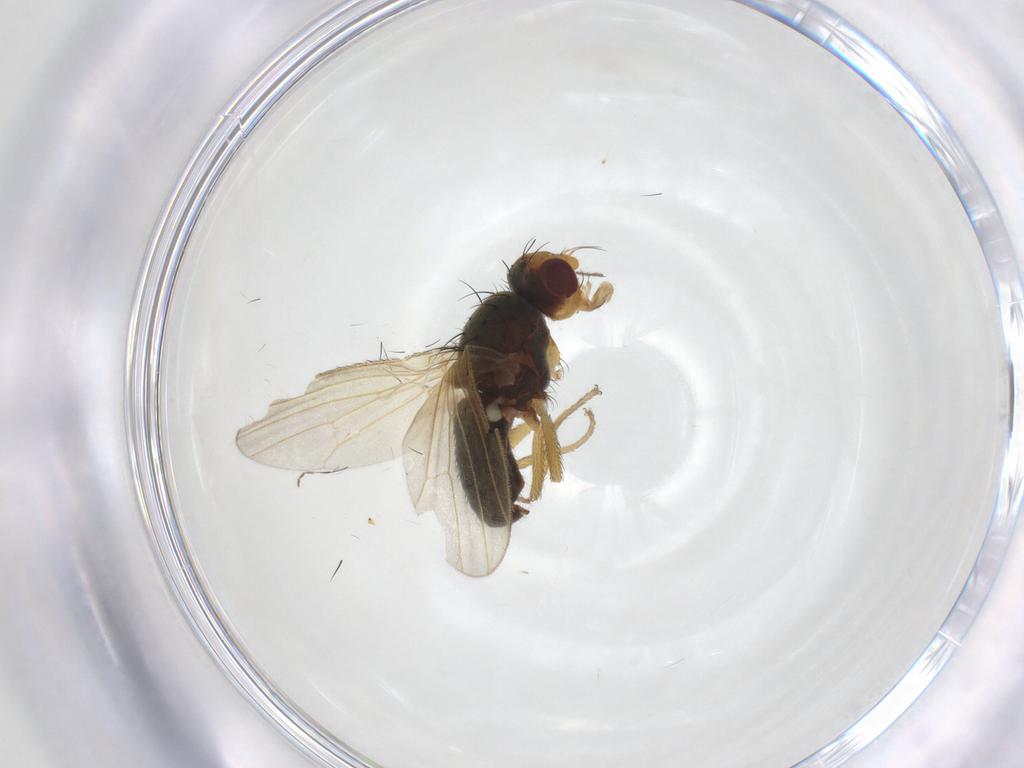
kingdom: Animalia
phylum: Arthropoda
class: Insecta
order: Diptera
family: Heleomyzidae
